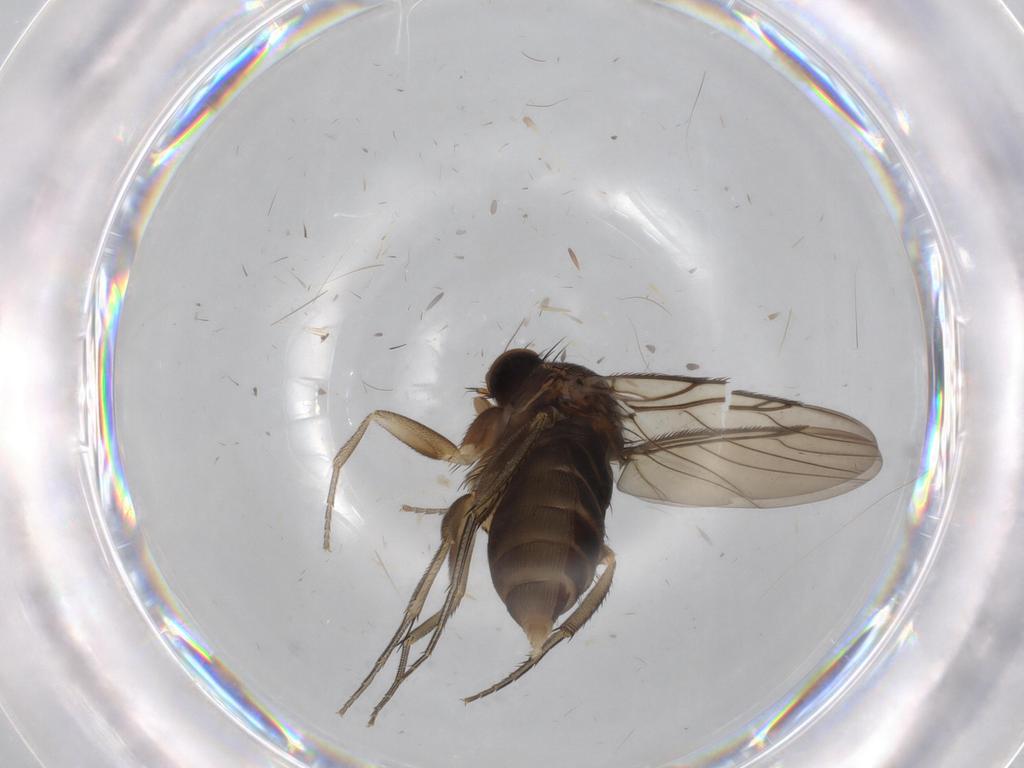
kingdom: Animalia
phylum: Arthropoda
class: Insecta
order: Diptera
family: Phoridae
